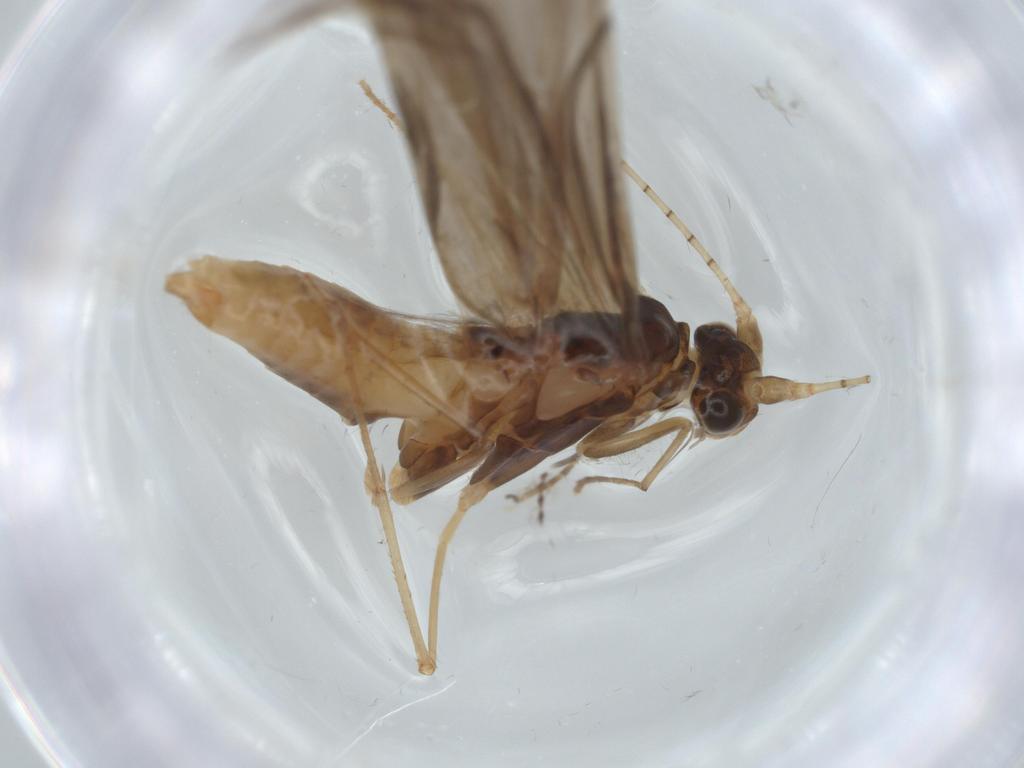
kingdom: Animalia
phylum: Arthropoda
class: Insecta
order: Trichoptera
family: Leptoceridae
